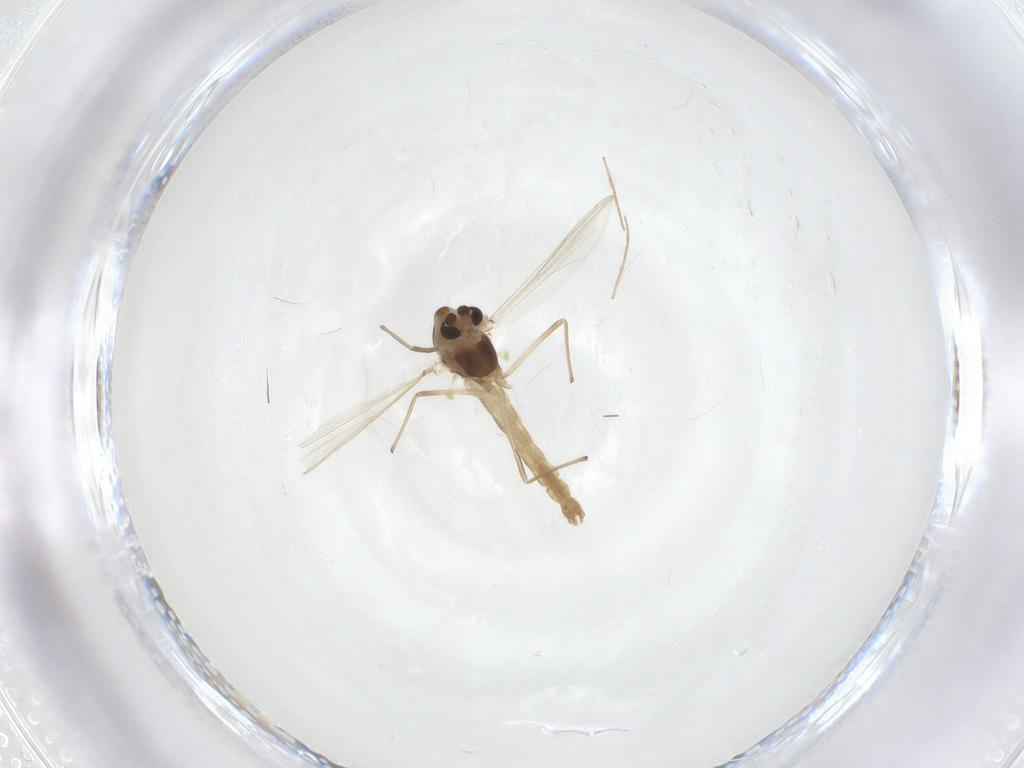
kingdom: Animalia
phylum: Arthropoda
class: Insecta
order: Diptera
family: Chironomidae
